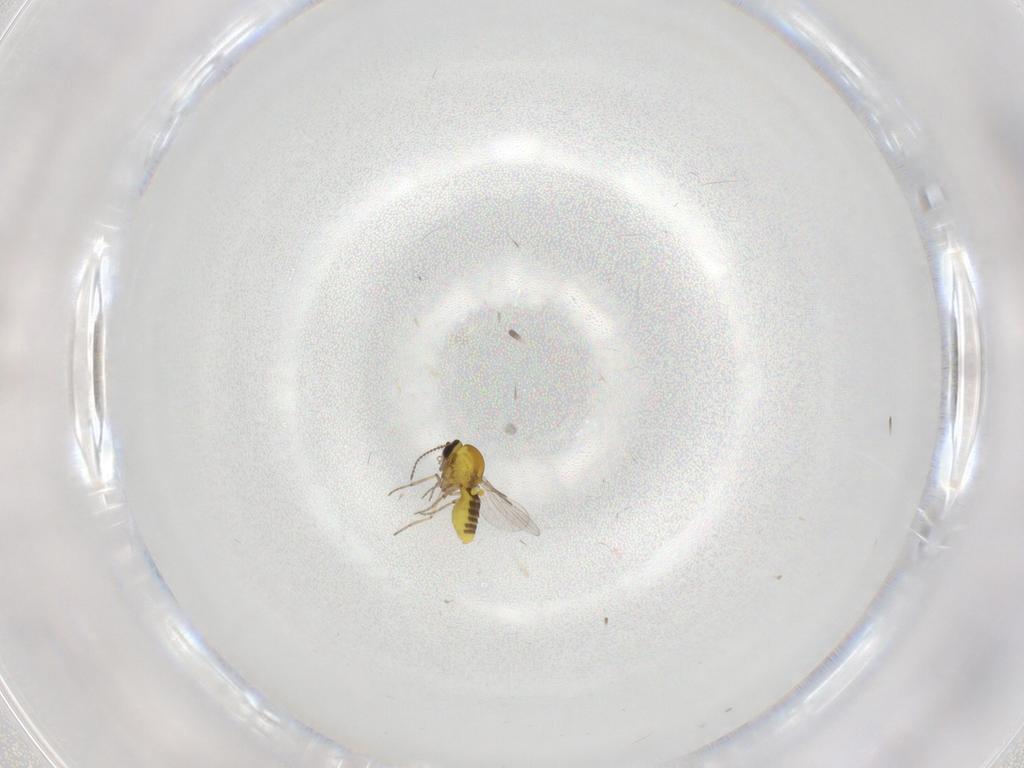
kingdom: Animalia
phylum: Arthropoda
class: Insecta
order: Diptera
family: Ceratopogonidae
